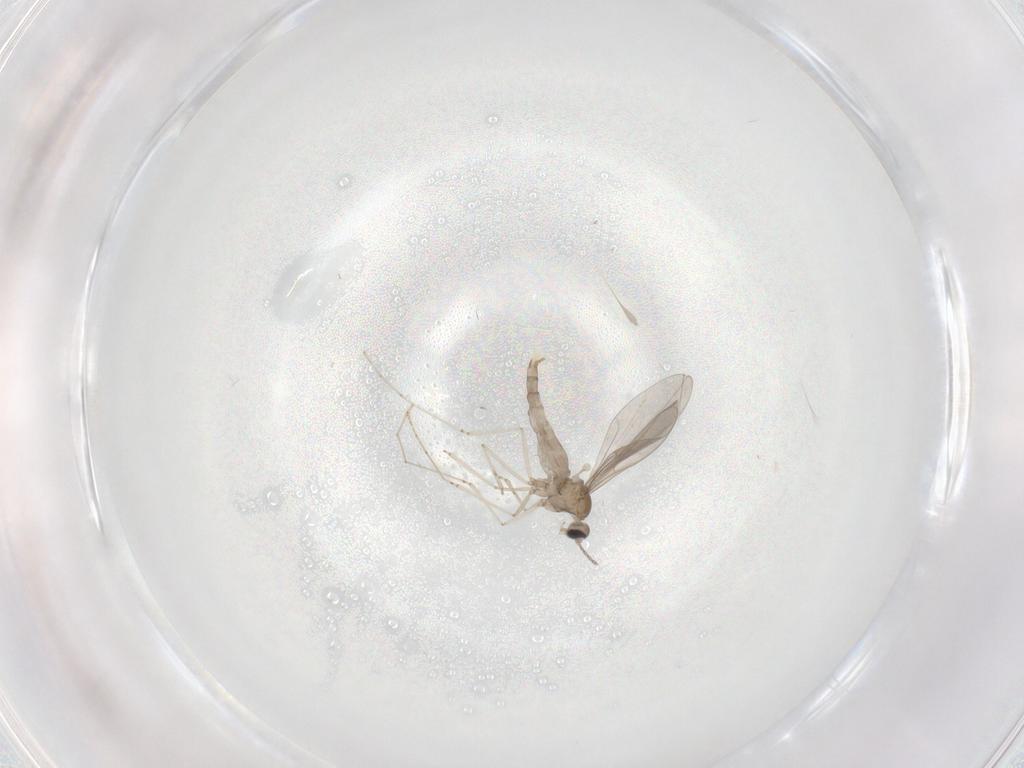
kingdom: Animalia
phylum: Arthropoda
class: Insecta
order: Diptera
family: Cecidomyiidae
